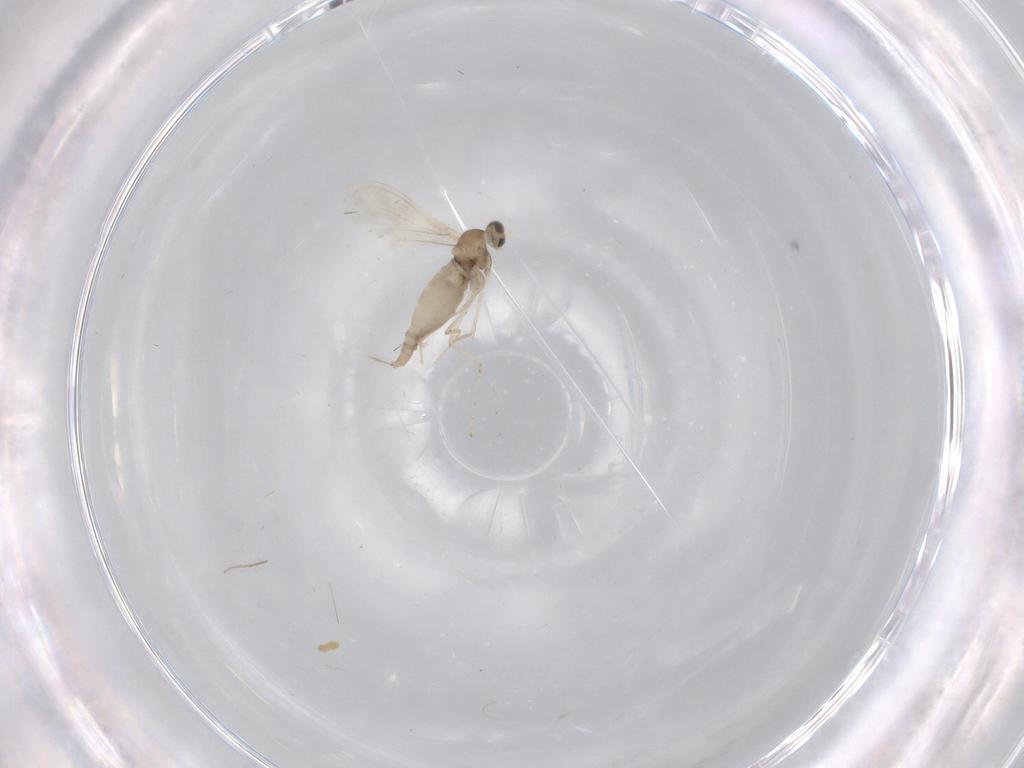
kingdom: Animalia
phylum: Arthropoda
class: Insecta
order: Diptera
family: Cecidomyiidae
